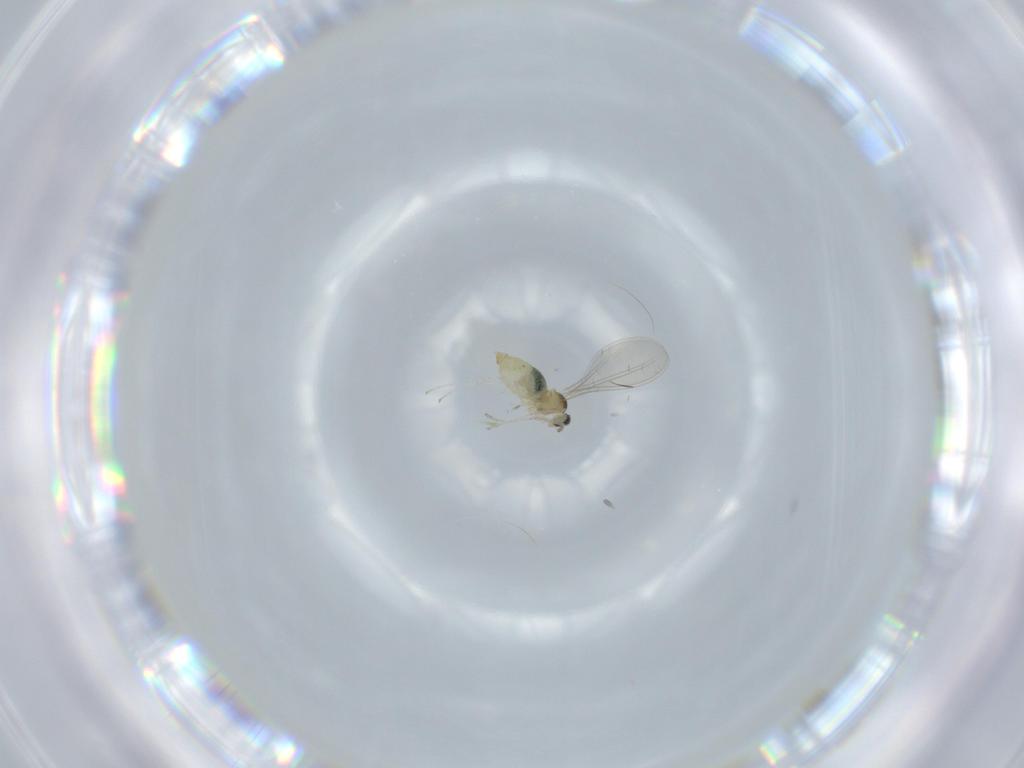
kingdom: Animalia
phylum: Arthropoda
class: Insecta
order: Diptera
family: Cecidomyiidae
